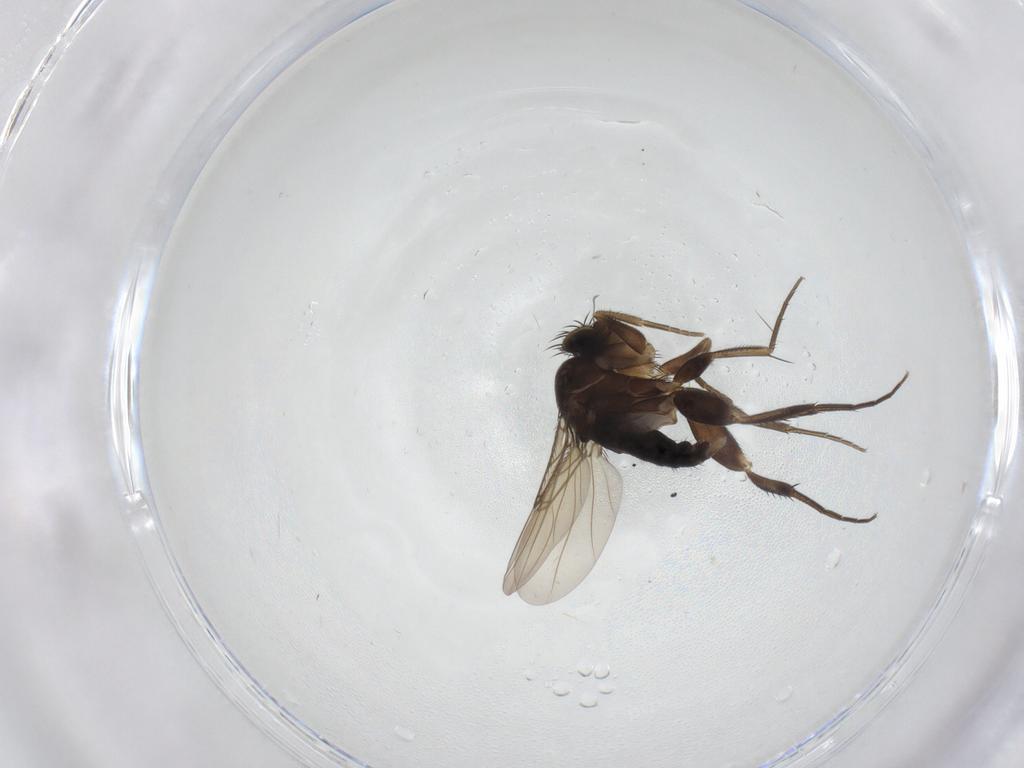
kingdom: Animalia
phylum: Arthropoda
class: Insecta
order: Diptera
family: Phoridae
